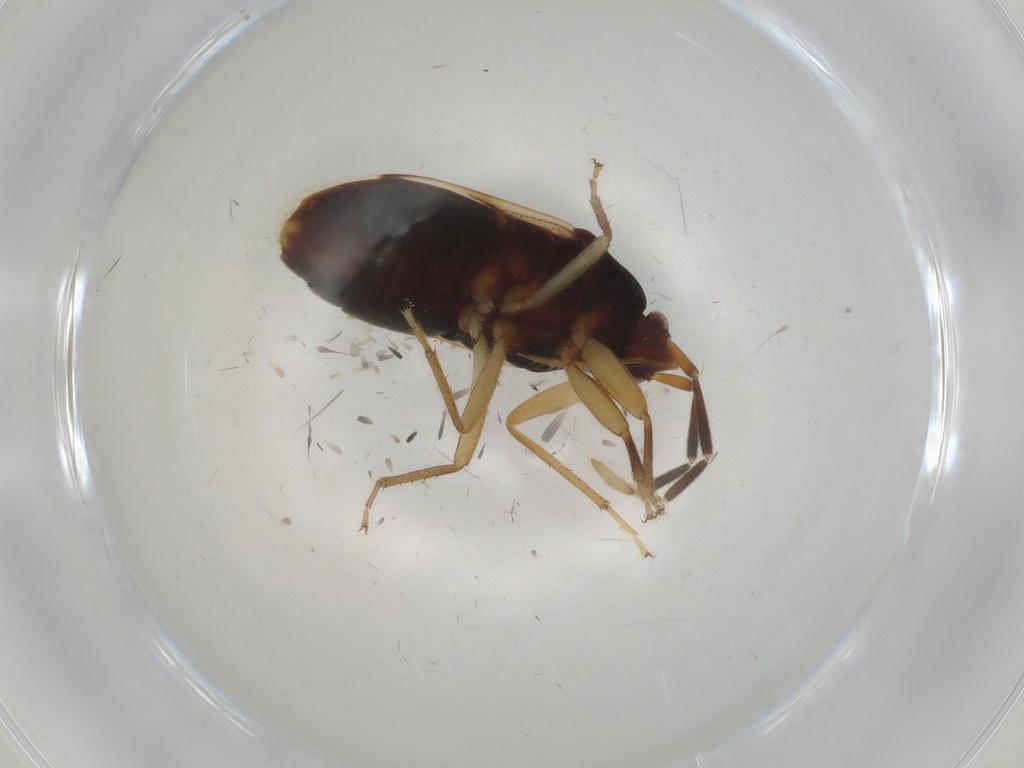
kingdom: Animalia
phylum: Arthropoda
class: Insecta
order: Hemiptera
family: Rhyparochromidae
